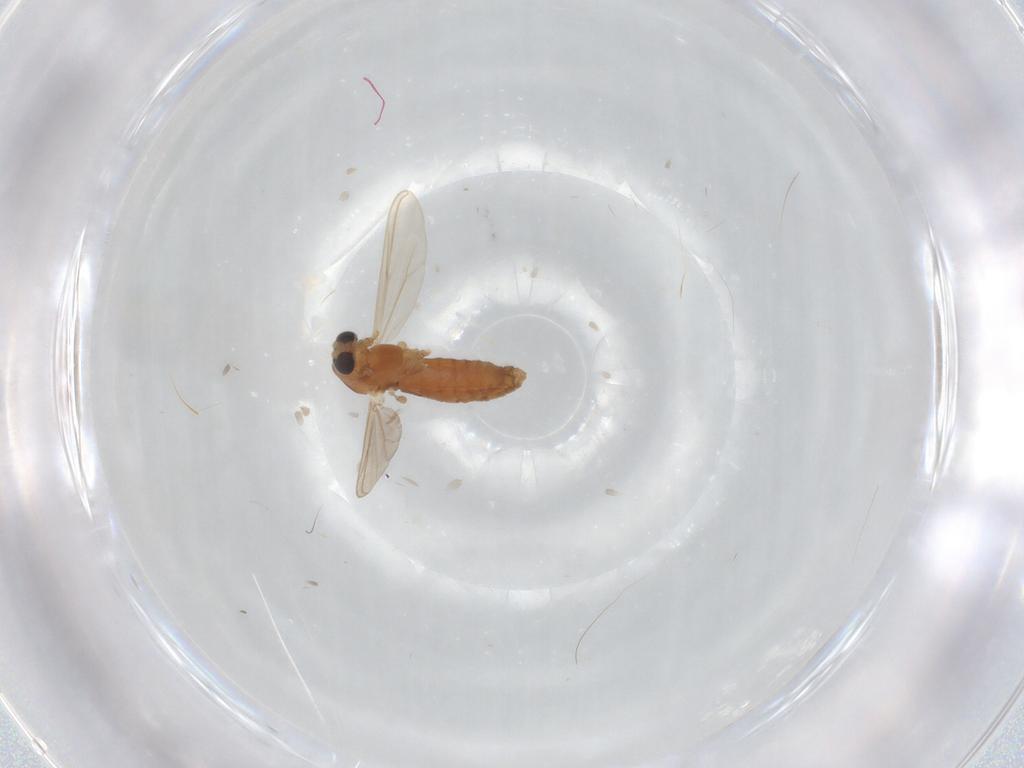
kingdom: Animalia
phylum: Arthropoda
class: Insecta
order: Diptera
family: Chironomidae
